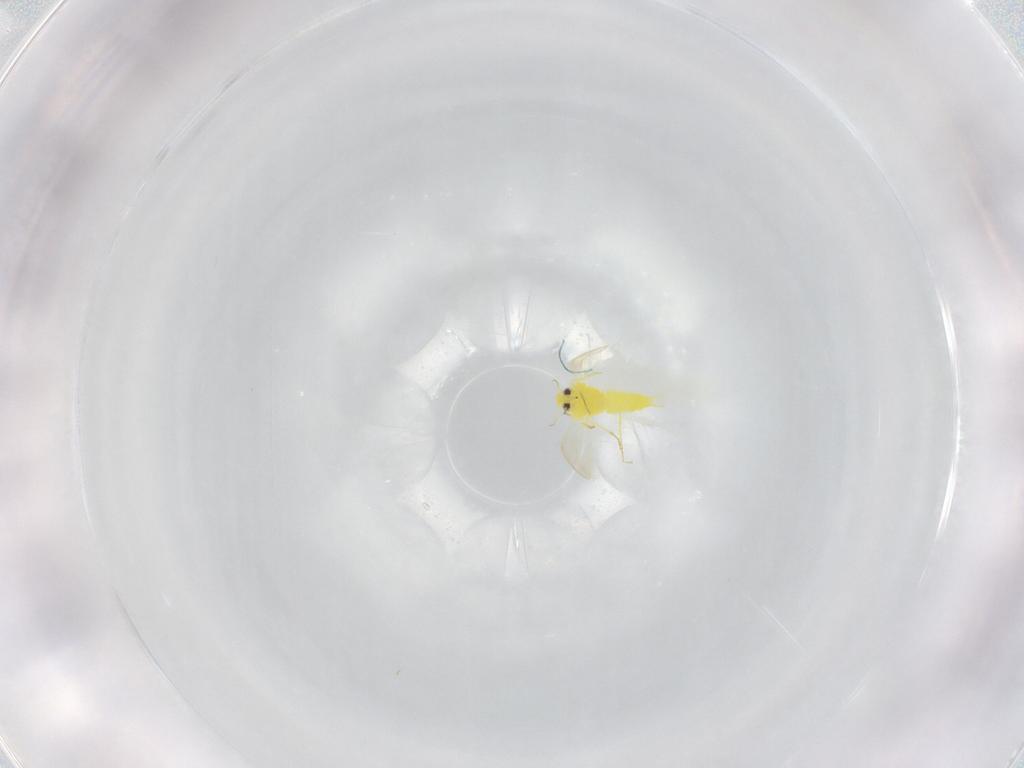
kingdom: Animalia
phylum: Arthropoda
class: Insecta
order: Hemiptera
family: Aleyrodidae
